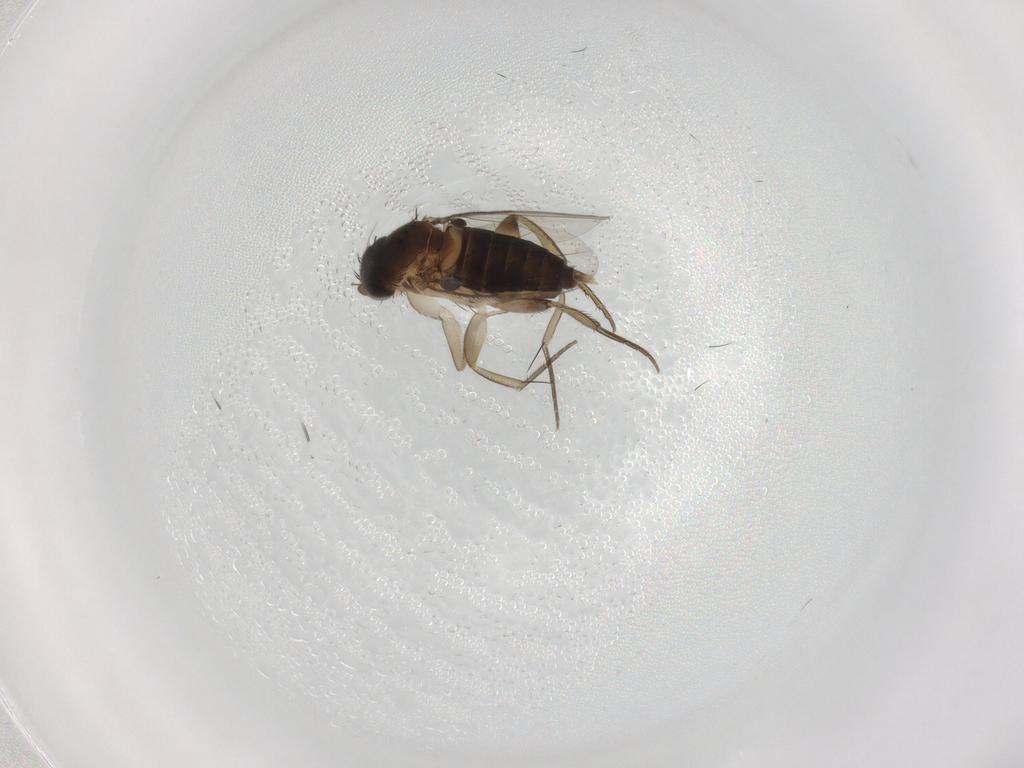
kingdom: Animalia
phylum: Arthropoda
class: Insecta
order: Diptera
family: Phoridae
